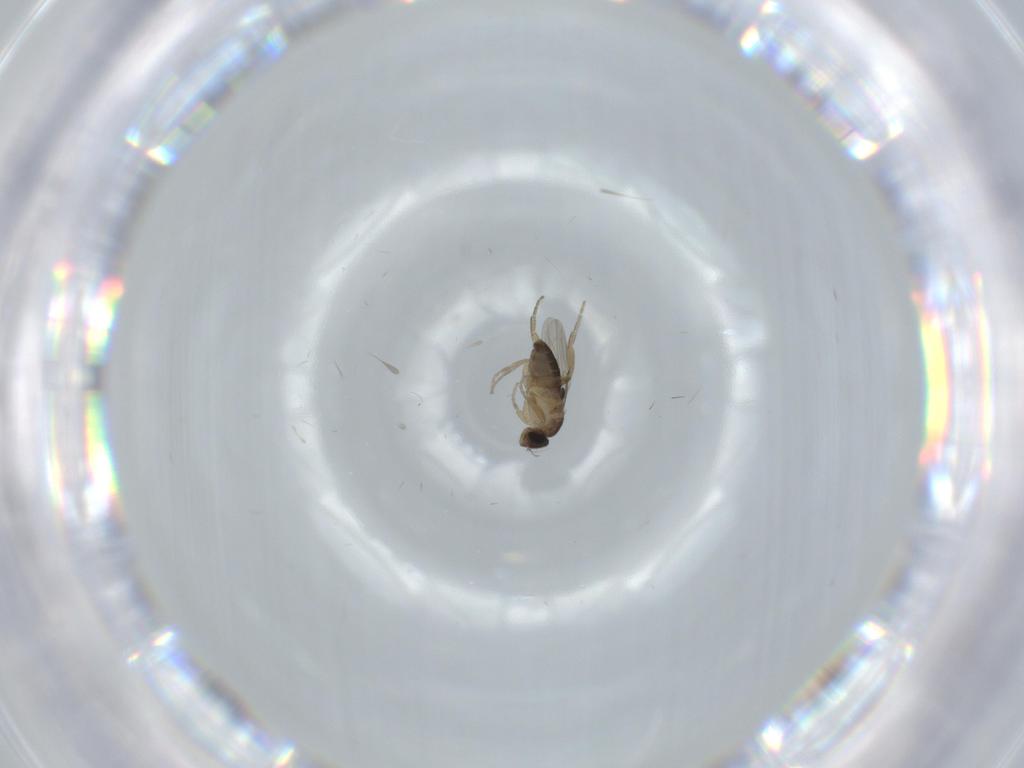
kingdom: Animalia
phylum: Arthropoda
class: Insecta
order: Diptera
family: Phoridae
